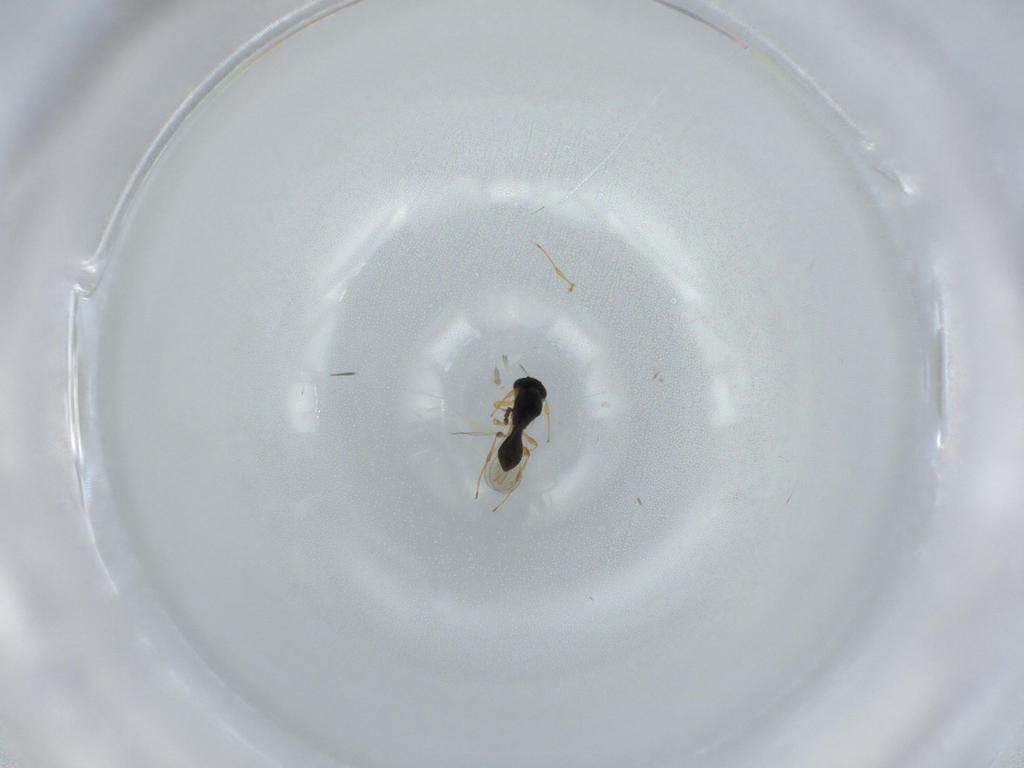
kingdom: Animalia
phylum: Arthropoda
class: Insecta
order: Hymenoptera
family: Platygastridae
